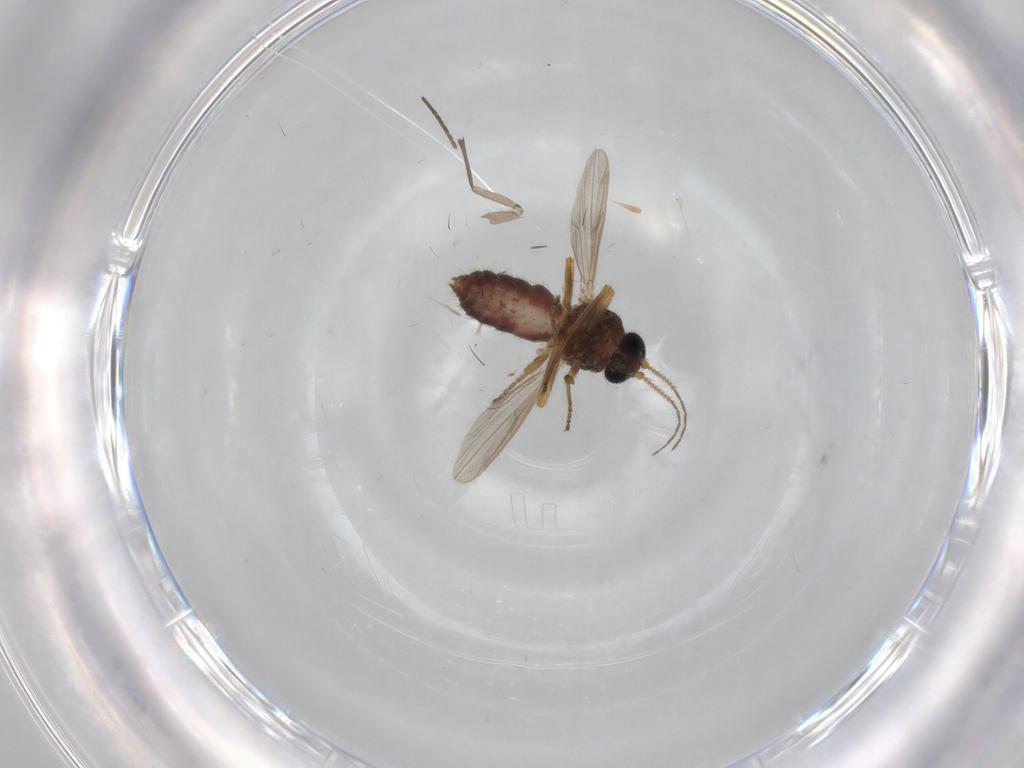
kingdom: Animalia
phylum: Arthropoda
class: Insecta
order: Diptera
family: Ceratopogonidae
